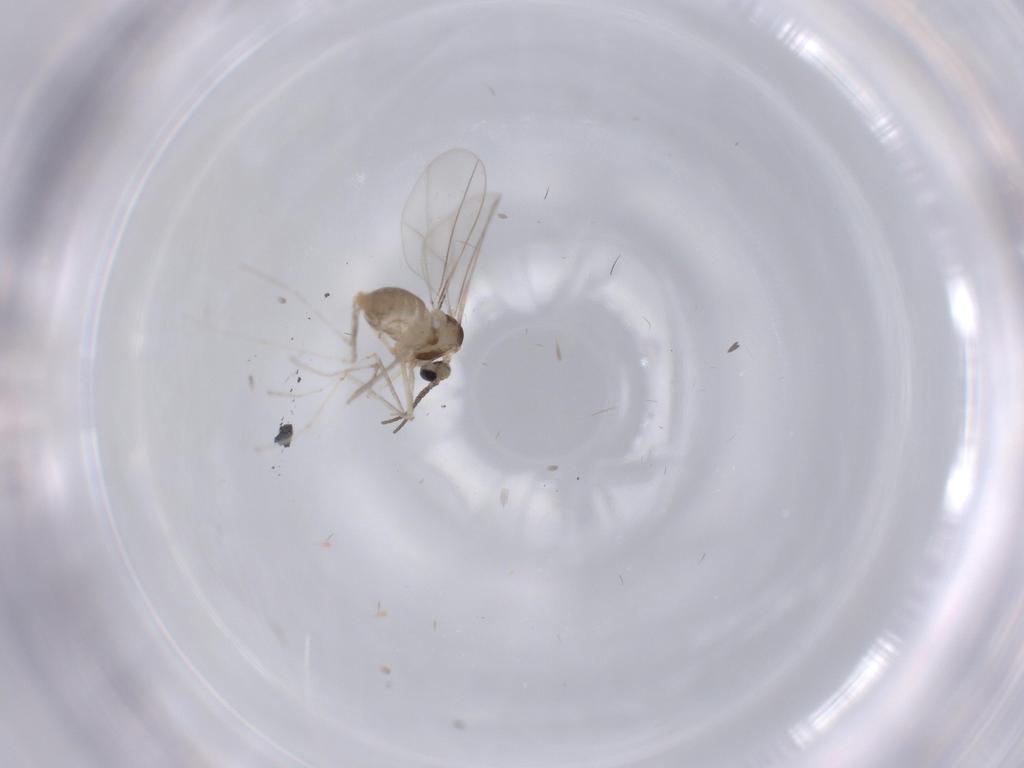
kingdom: Animalia
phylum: Arthropoda
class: Insecta
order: Diptera
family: Cecidomyiidae
